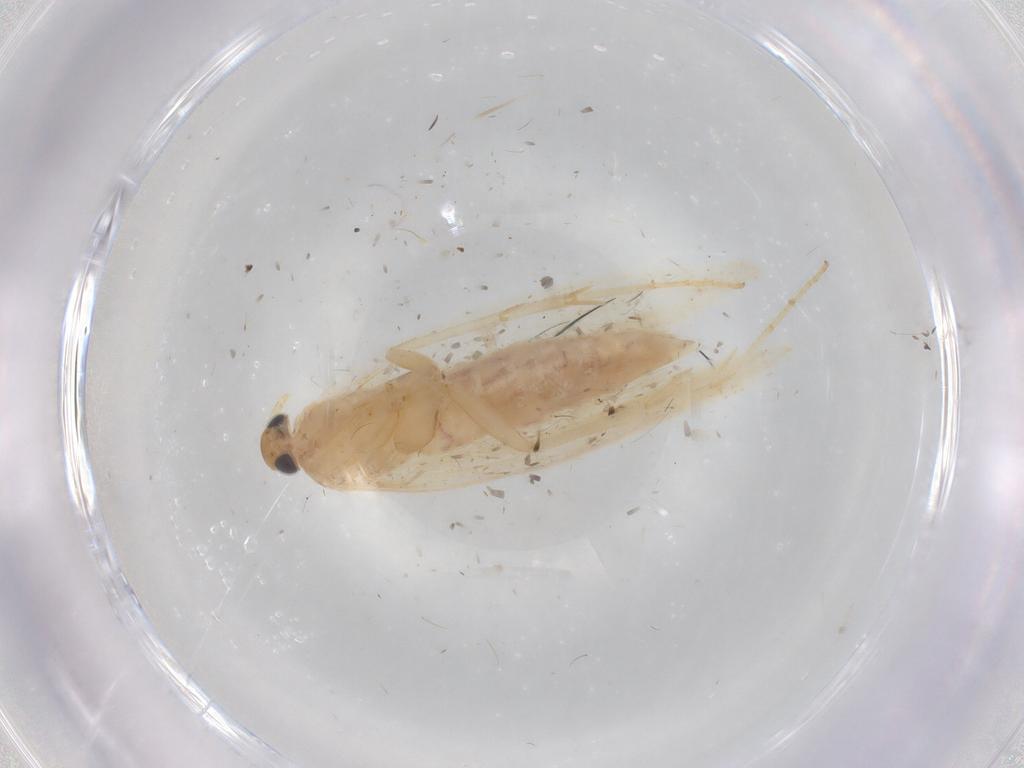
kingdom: Animalia
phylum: Arthropoda
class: Insecta
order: Lepidoptera
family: Gelechiidae
